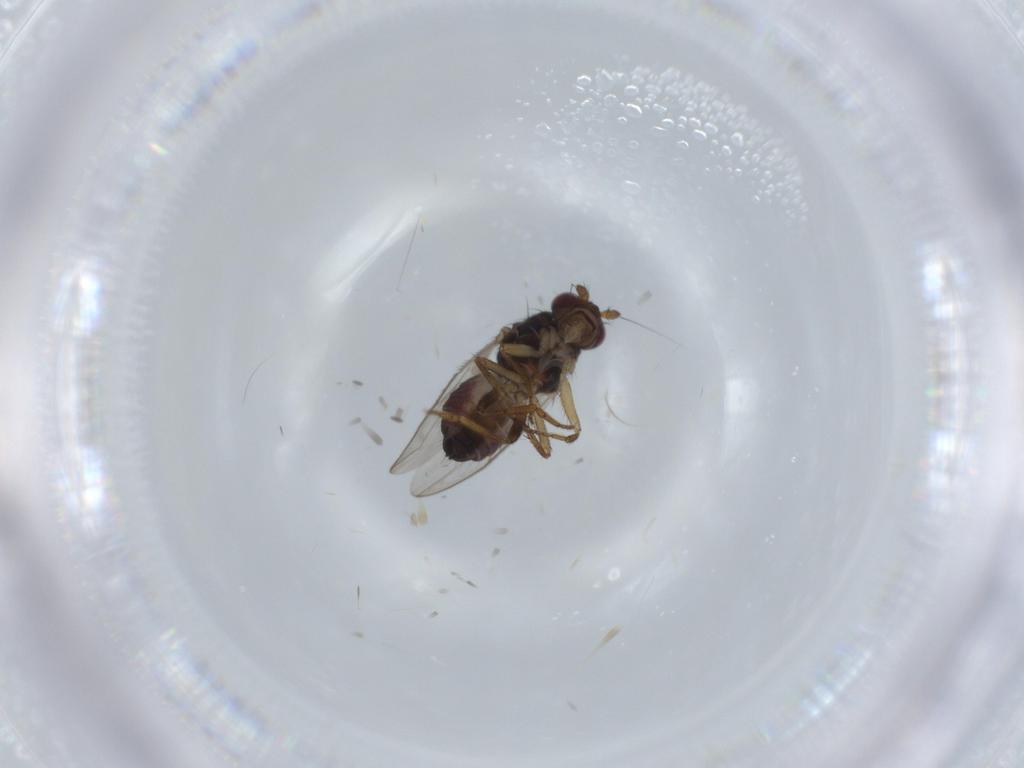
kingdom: Animalia
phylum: Arthropoda
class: Insecta
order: Diptera
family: Sphaeroceridae
